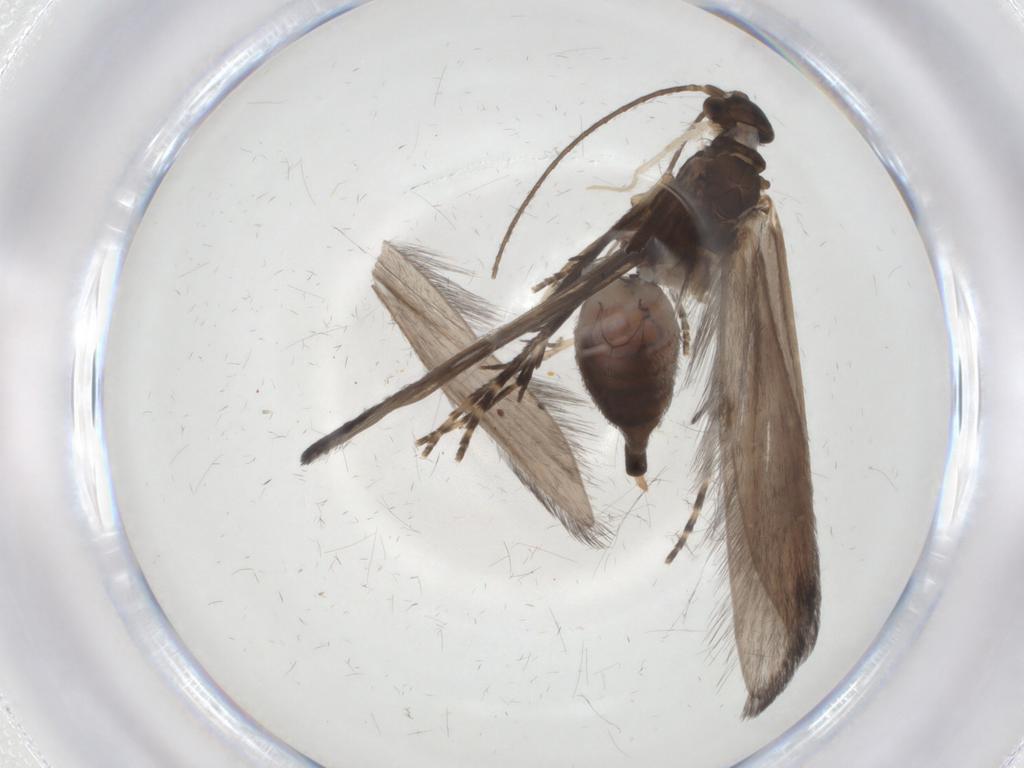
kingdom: Animalia
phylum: Arthropoda
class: Insecta
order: Trichoptera
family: Xiphocentronidae
